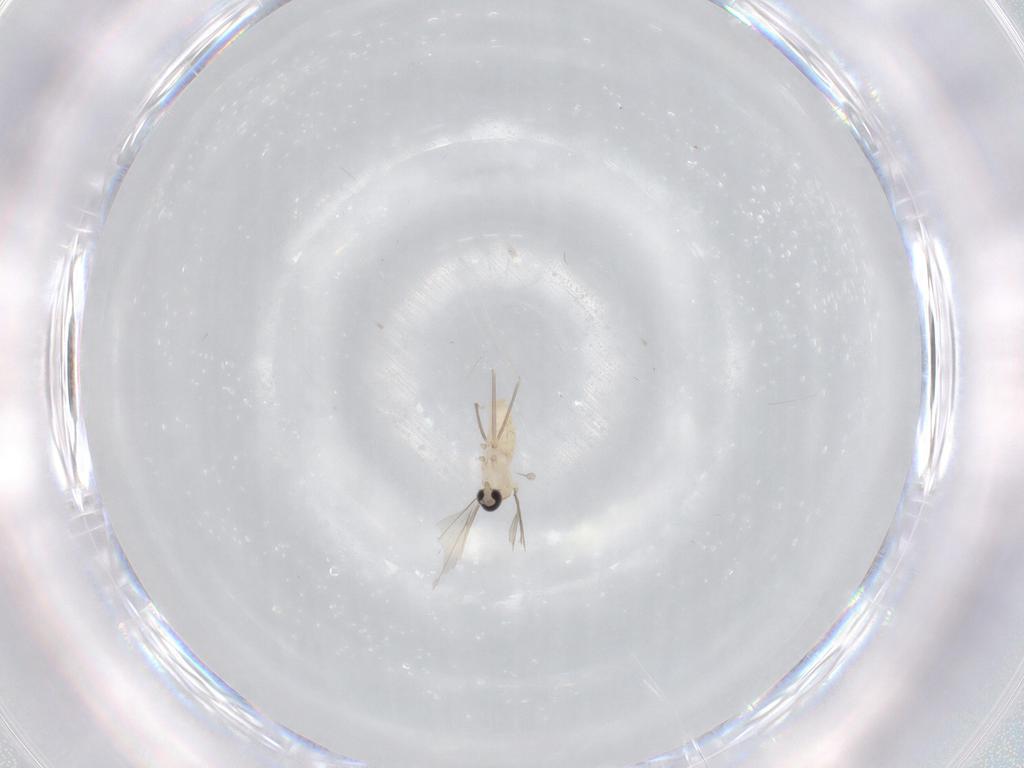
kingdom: Animalia
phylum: Arthropoda
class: Insecta
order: Diptera
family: Cecidomyiidae
